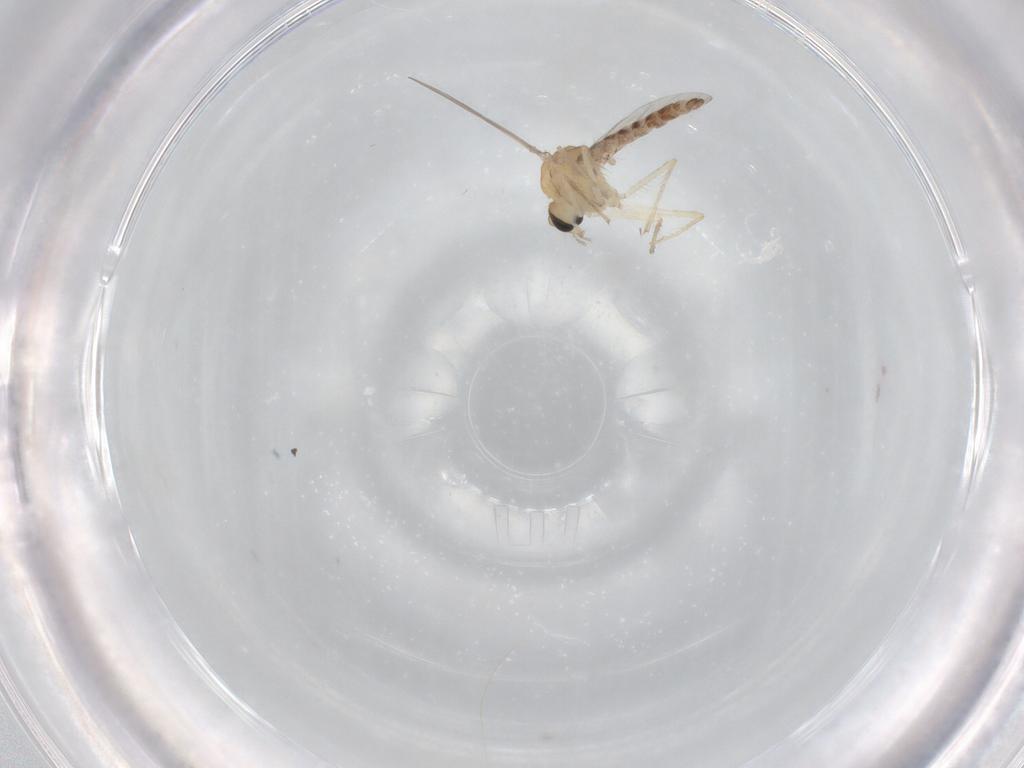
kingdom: Animalia
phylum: Arthropoda
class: Insecta
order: Diptera
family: Chironomidae
